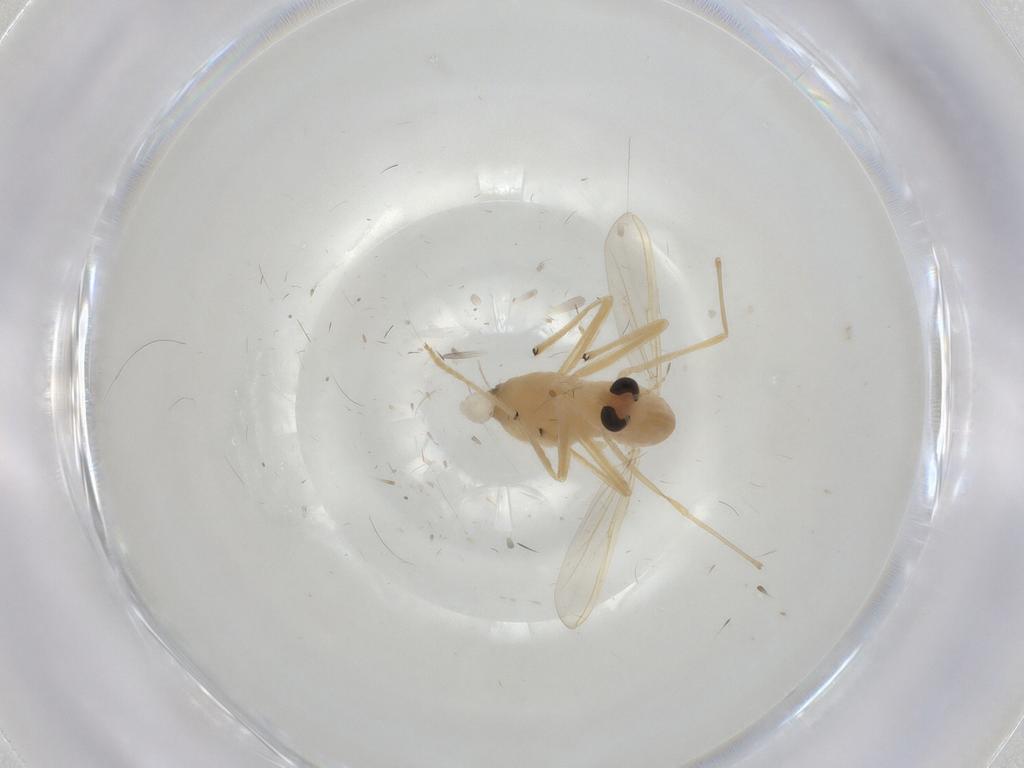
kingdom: Animalia
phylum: Arthropoda
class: Insecta
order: Diptera
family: Chironomidae
